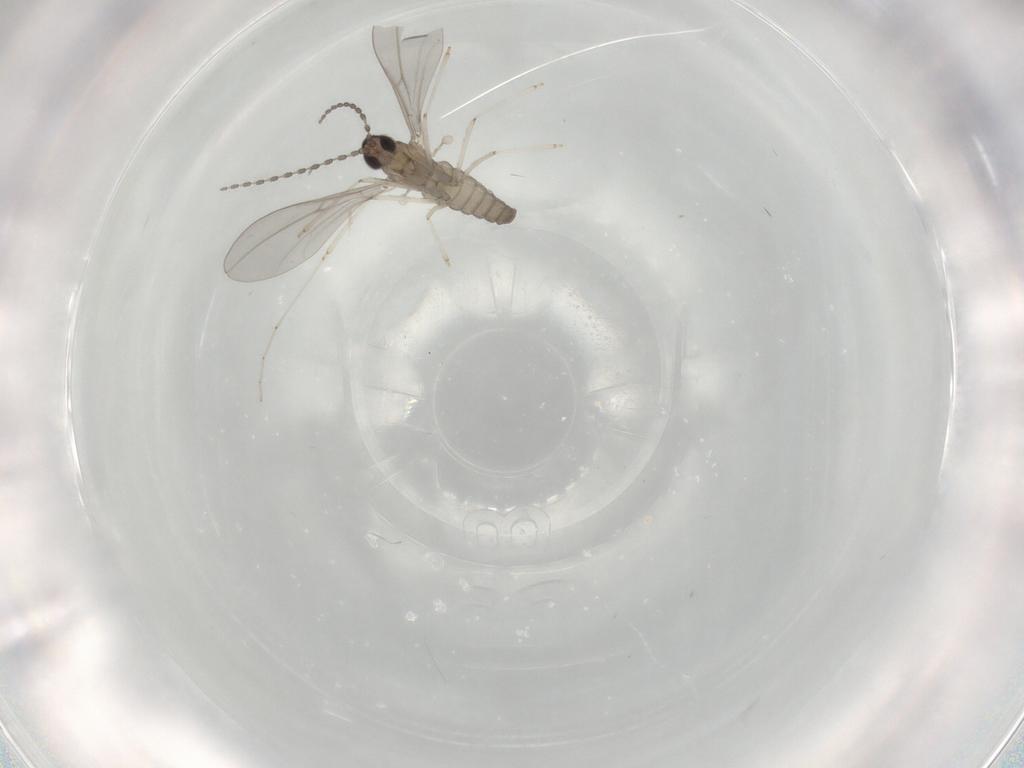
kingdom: Animalia
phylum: Arthropoda
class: Insecta
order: Diptera
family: Cecidomyiidae
